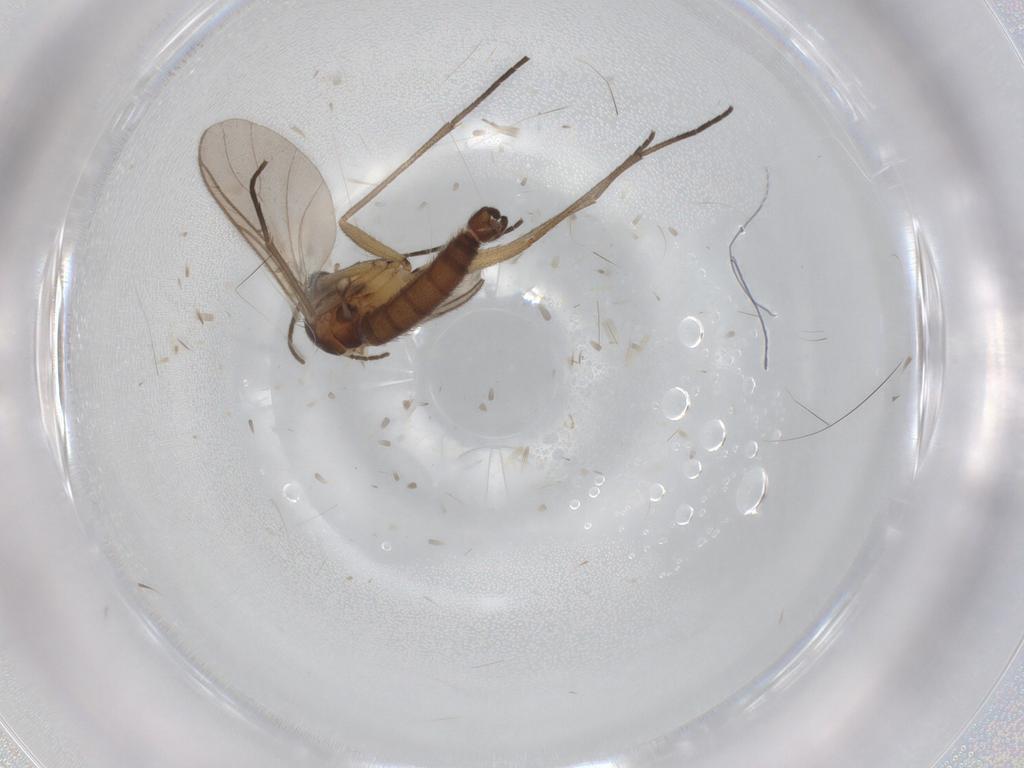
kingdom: Animalia
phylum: Arthropoda
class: Insecta
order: Diptera
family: Sciaridae
